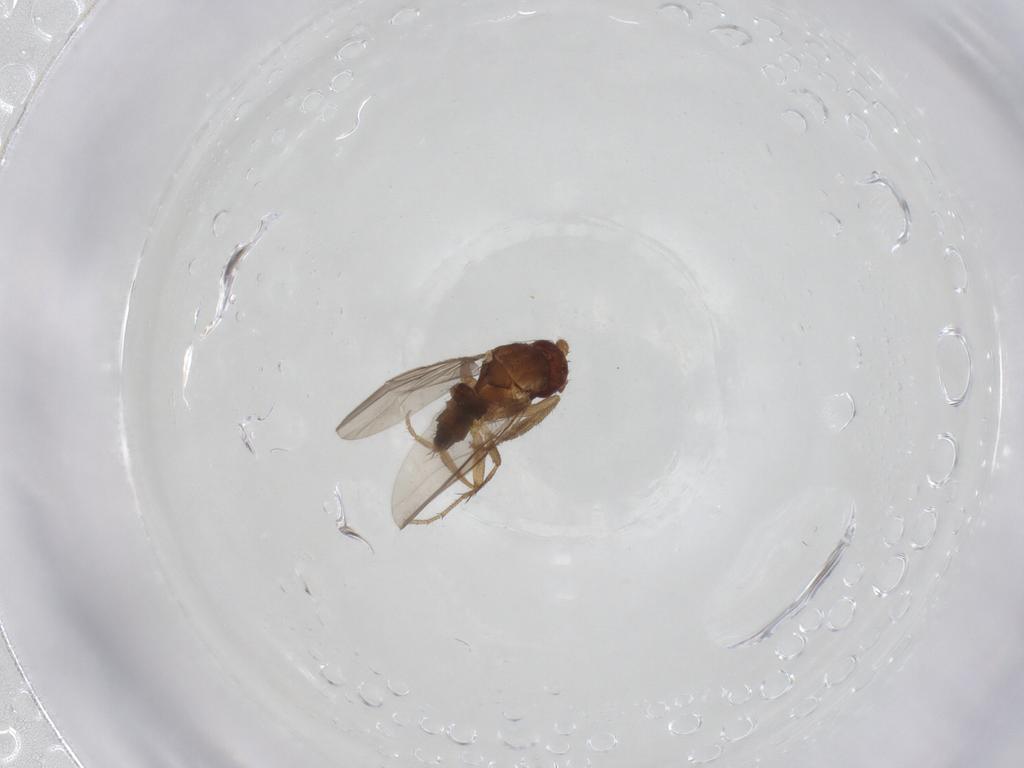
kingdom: Animalia
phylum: Arthropoda
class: Insecta
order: Diptera
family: Sphaeroceridae
